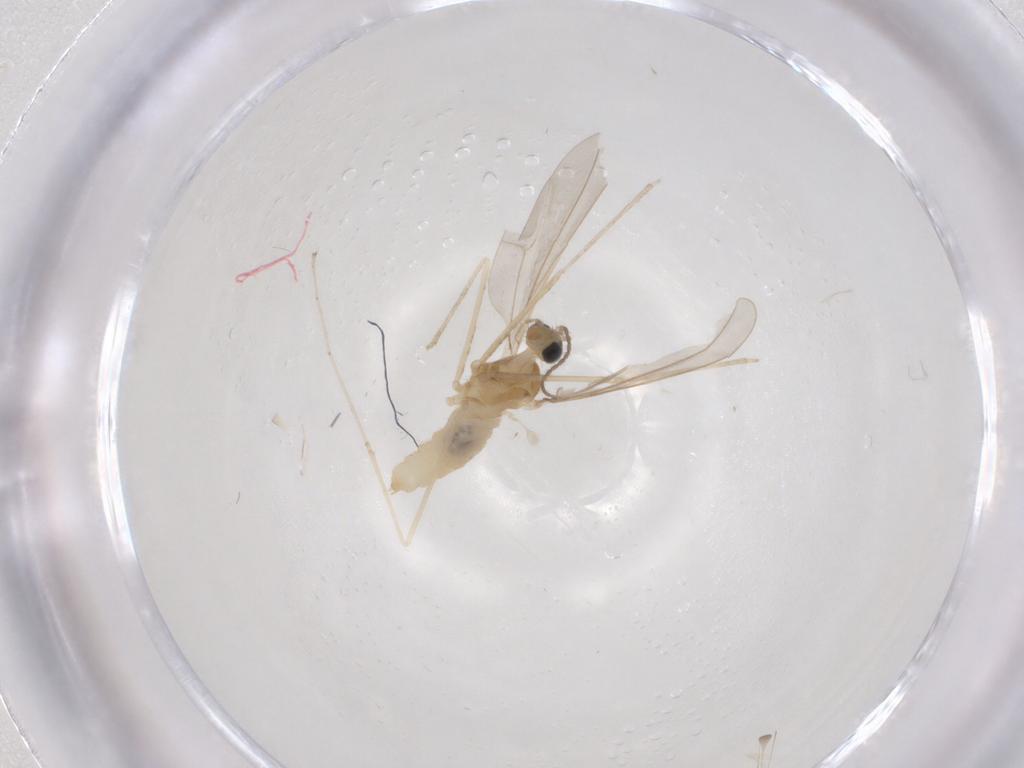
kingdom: Animalia
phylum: Arthropoda
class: Insecta
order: Diptera
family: Cecidomyiidae
